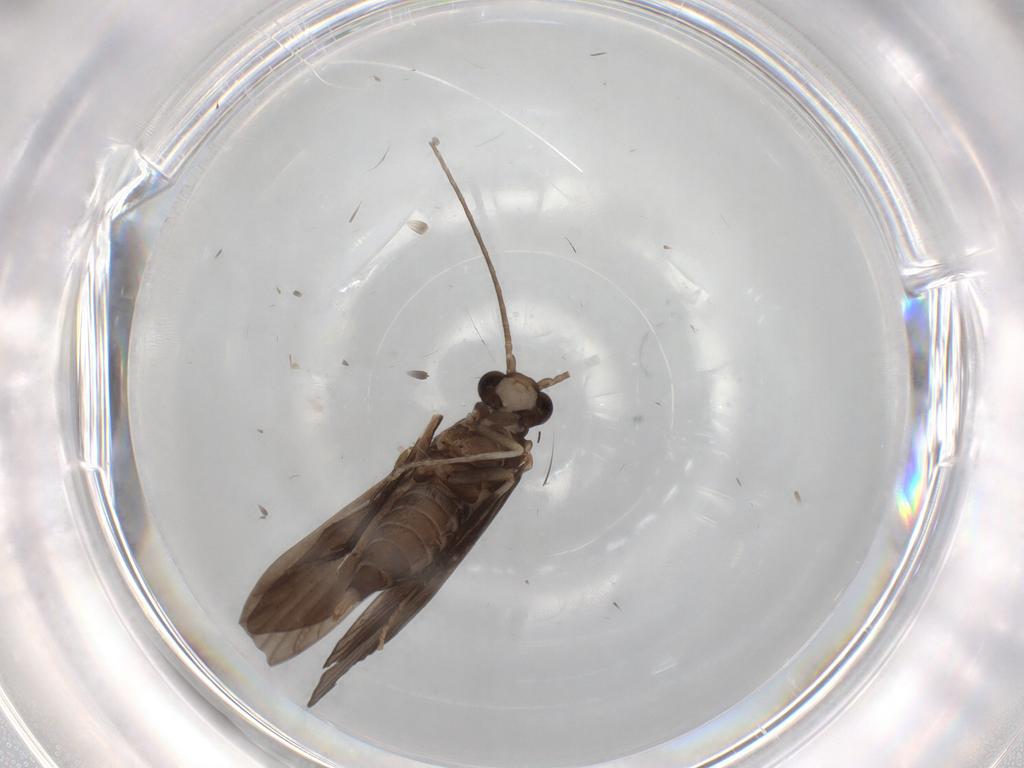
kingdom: Animalia
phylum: Arthropoda
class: Insecta
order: Trichoptera
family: Xiphocentronidae
